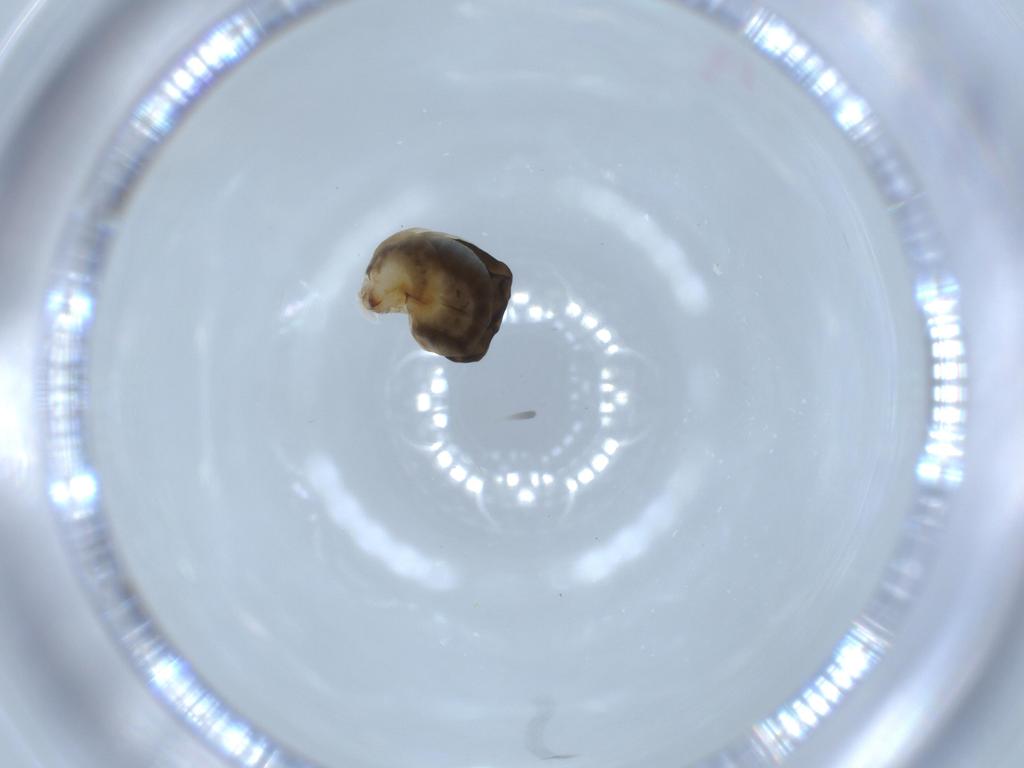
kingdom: Animalia
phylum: Arthropoda
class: Insecta
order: Hymenoptera
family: Dryinidae
